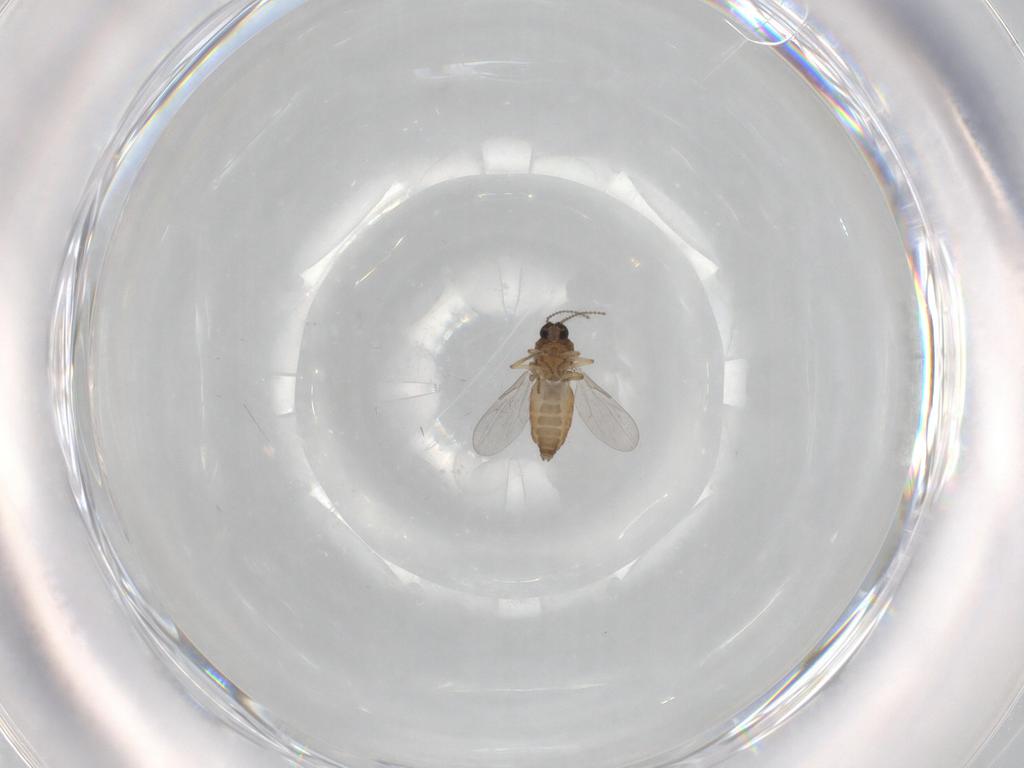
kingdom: Animalia
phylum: Arthropoda
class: Insecta
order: Diptera
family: Ceratopogonidae
